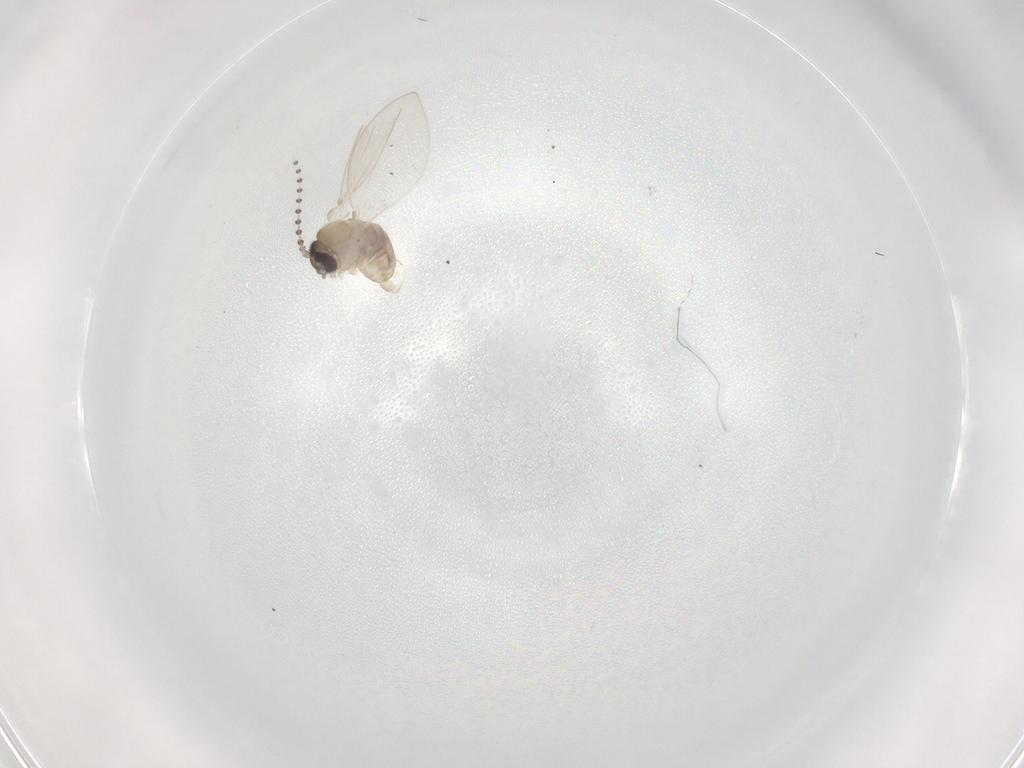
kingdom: Animalia
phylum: Arthropoda
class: Insecta
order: Diptera
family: Psychodidae
